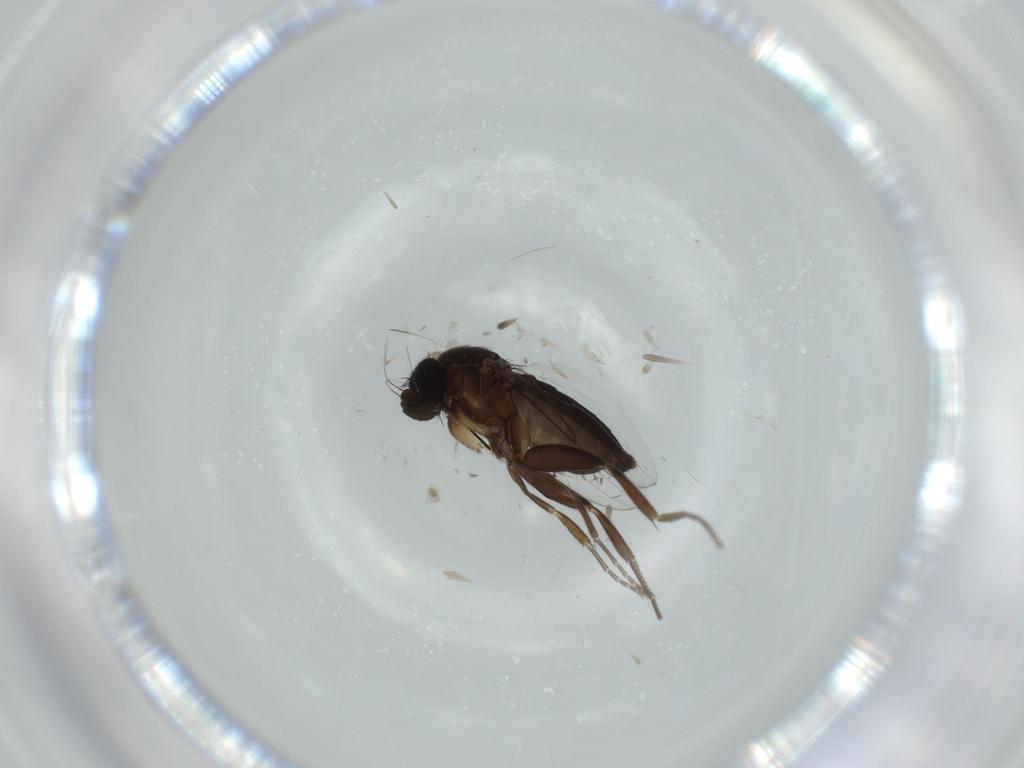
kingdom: Animalia
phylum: Arthropoda
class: Insecta
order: Diptera
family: Phoridae
